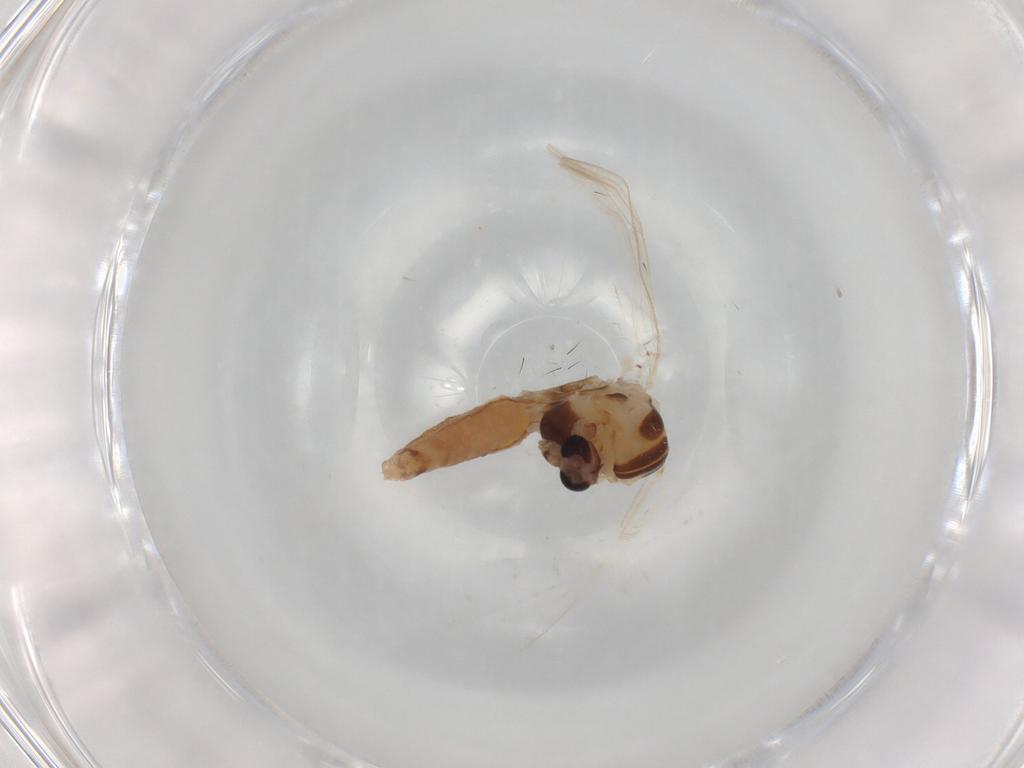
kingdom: Animalia
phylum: Arthropoda
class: Insecta
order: Diptera
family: Chironomidae
